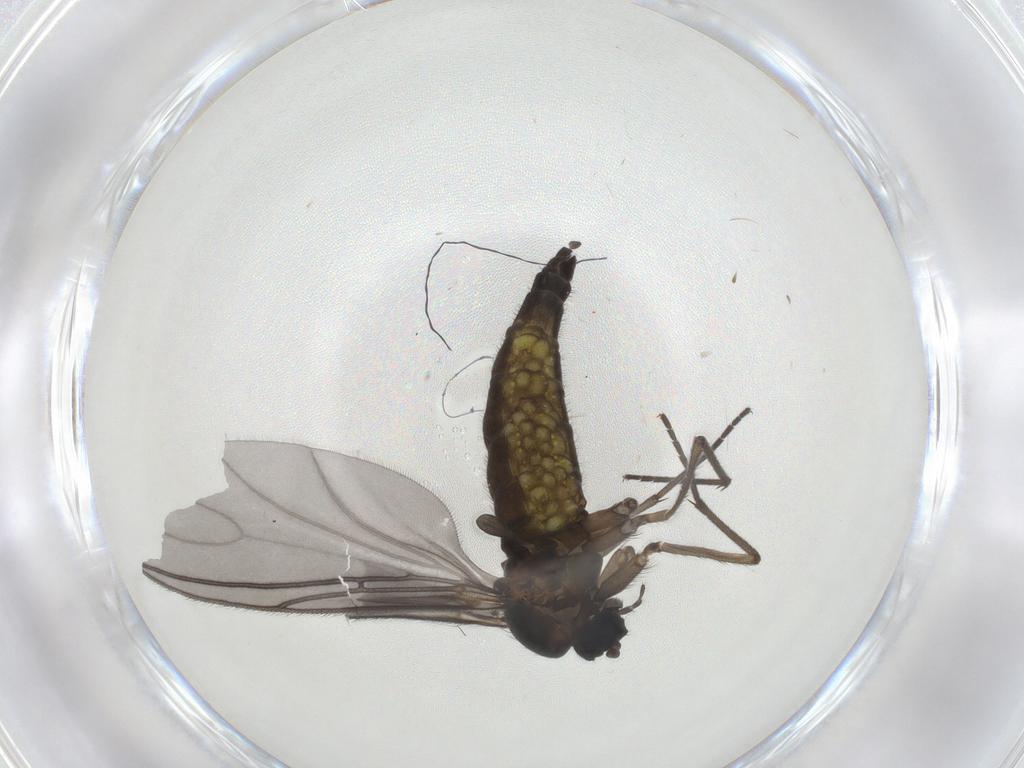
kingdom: Animalia
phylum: Arthropoda
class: Insecta
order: Diptera
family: Sciaridae
